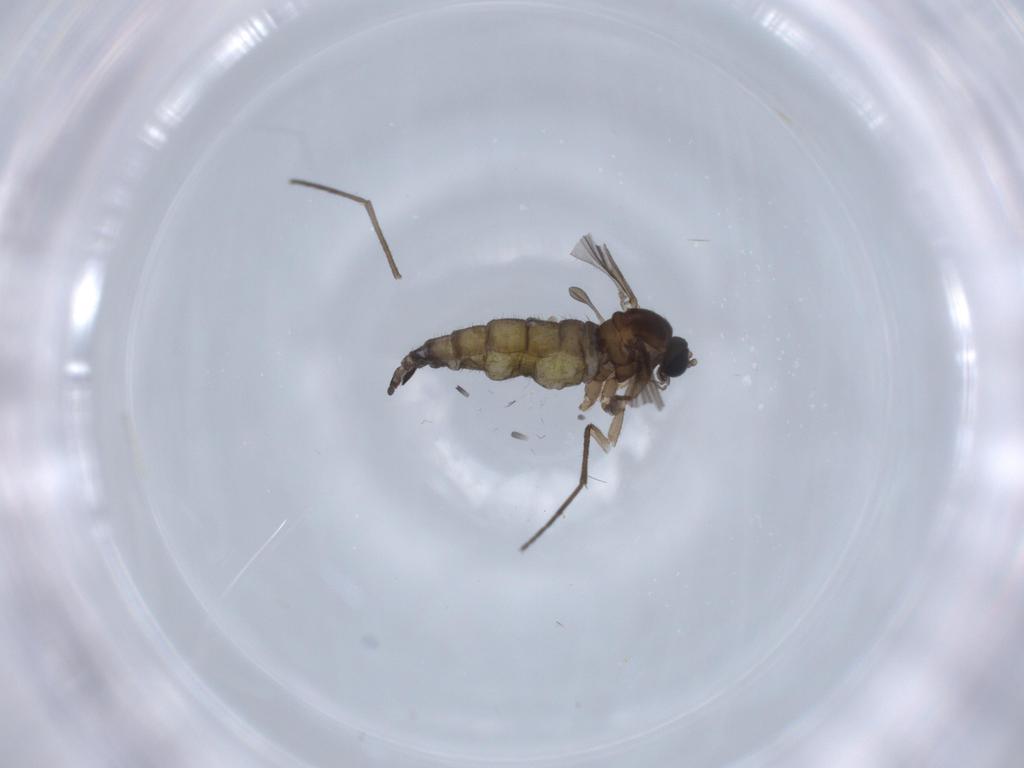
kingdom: Animalia
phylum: Arthropoda
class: Insecta
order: Diptera
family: Sciaridae
